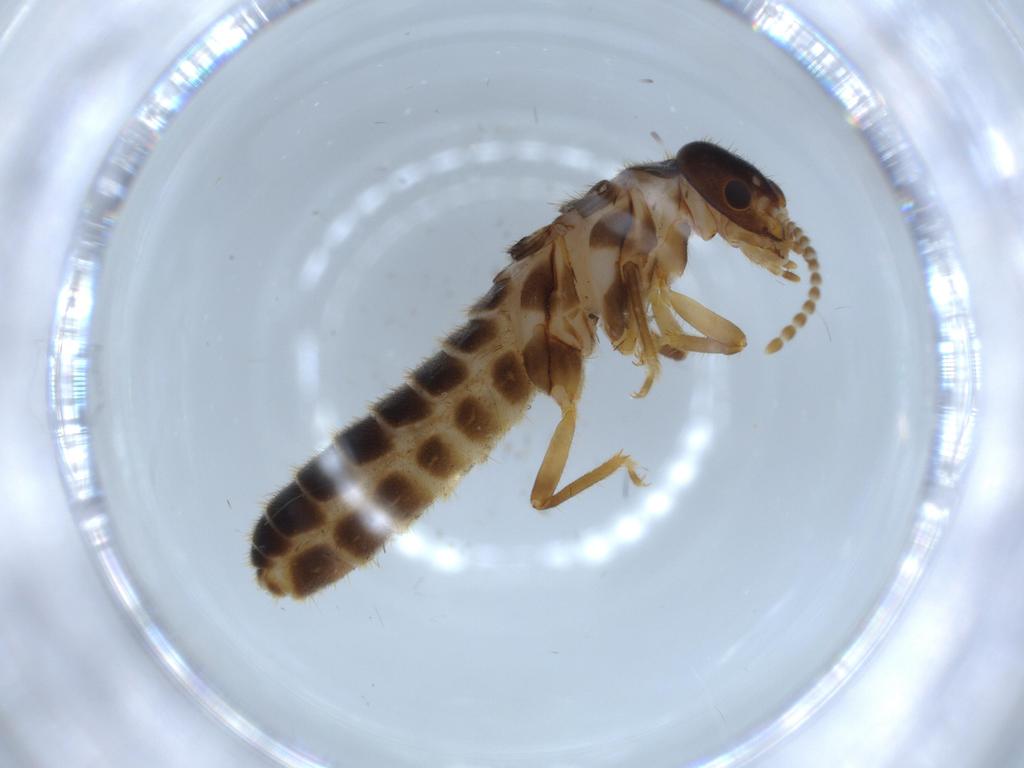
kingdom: Animalia
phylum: Arthropoda
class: Insecta
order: Blattodea
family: Termitidae
